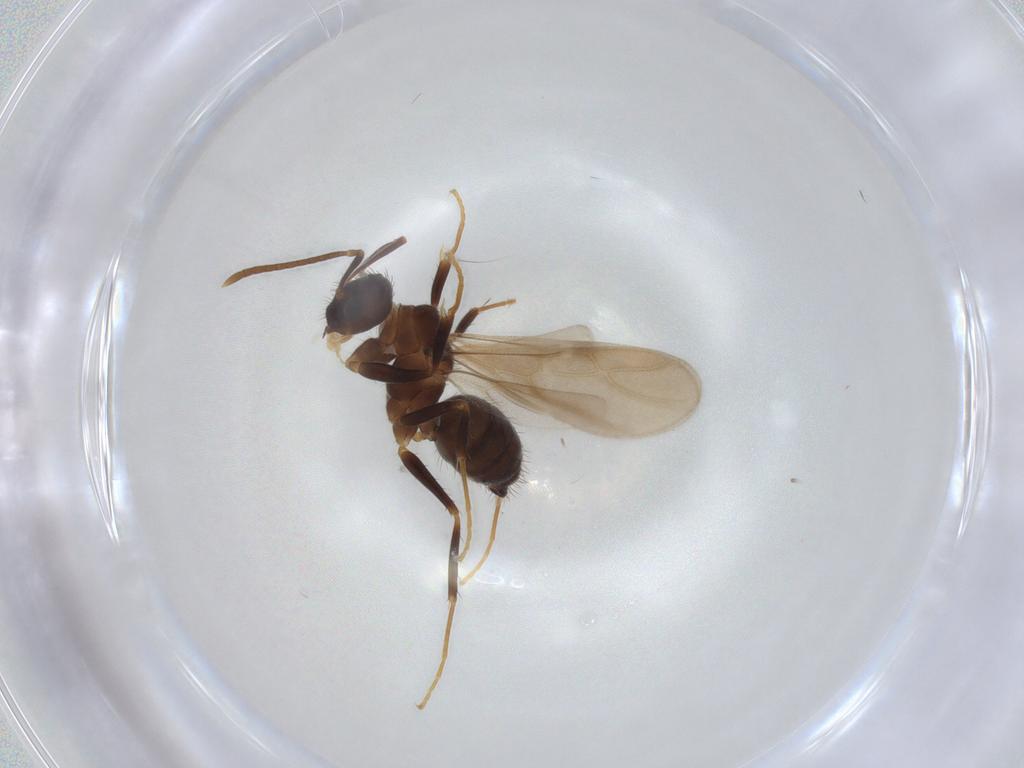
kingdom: Animalia
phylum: Arthropoda
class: Insecta
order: Hymenoptera
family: Formicidae
